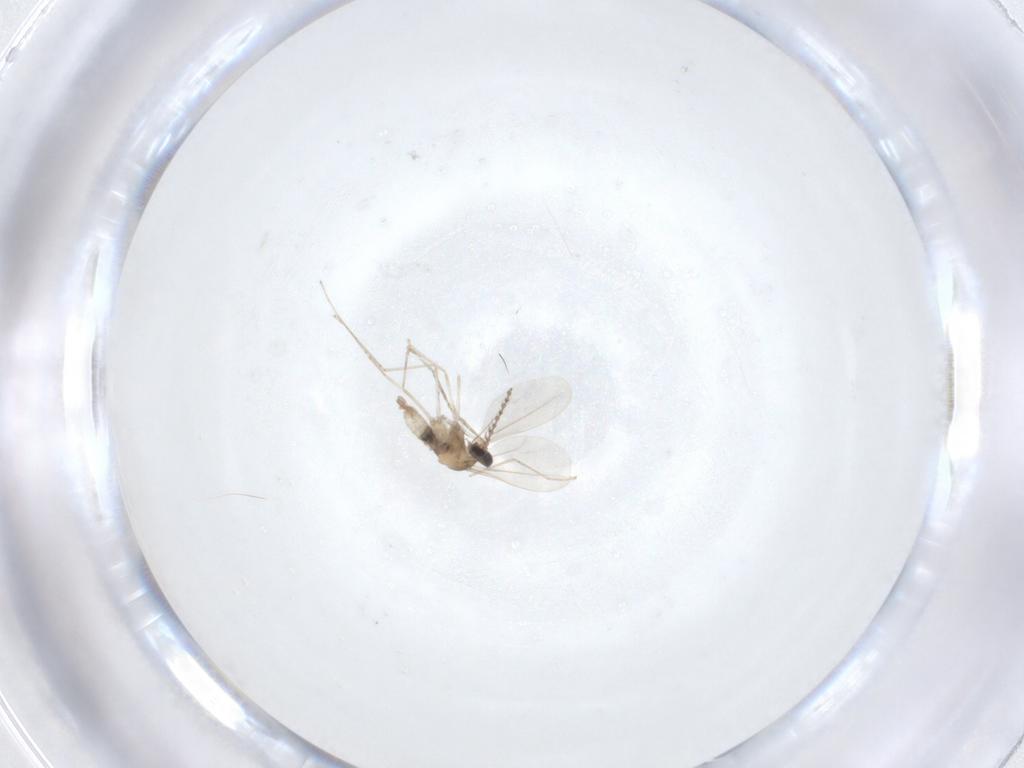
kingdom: Animalia
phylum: Arthropoda
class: Insecta
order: Diptera
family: Cecidomyiidae
